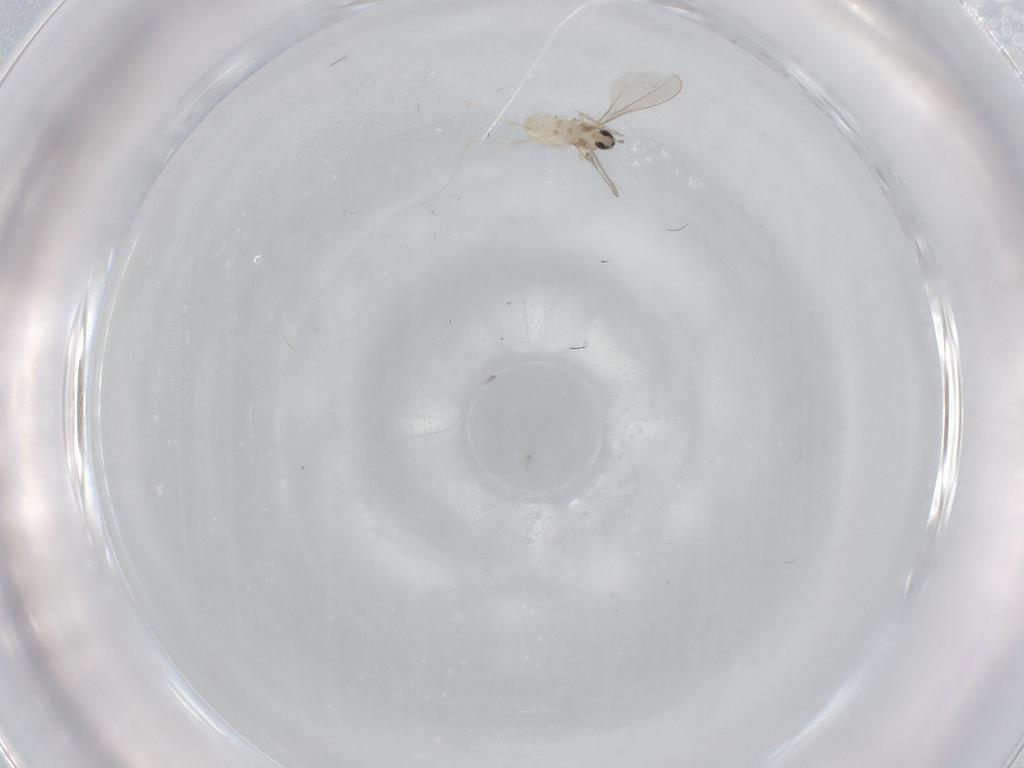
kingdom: Animalia
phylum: Arthropoda
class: Insecta
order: Diptera
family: Cecidomyiidae
